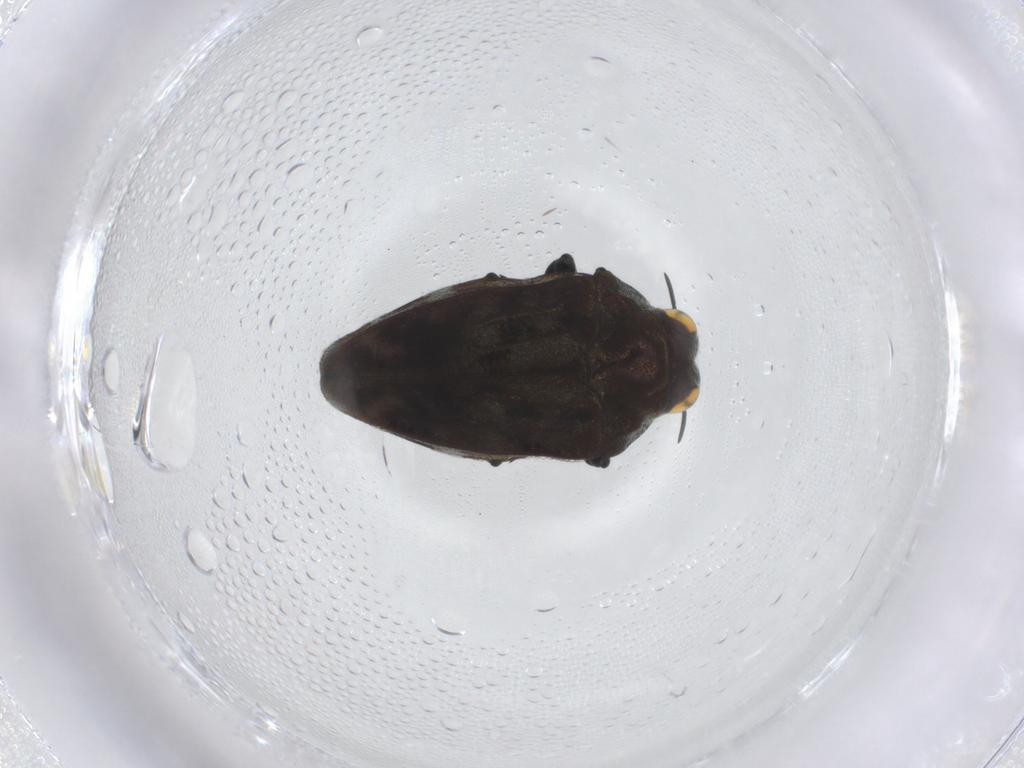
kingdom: Animalia
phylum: Arthropoda
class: Insecta
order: Coleoptera
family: Buprestidae
